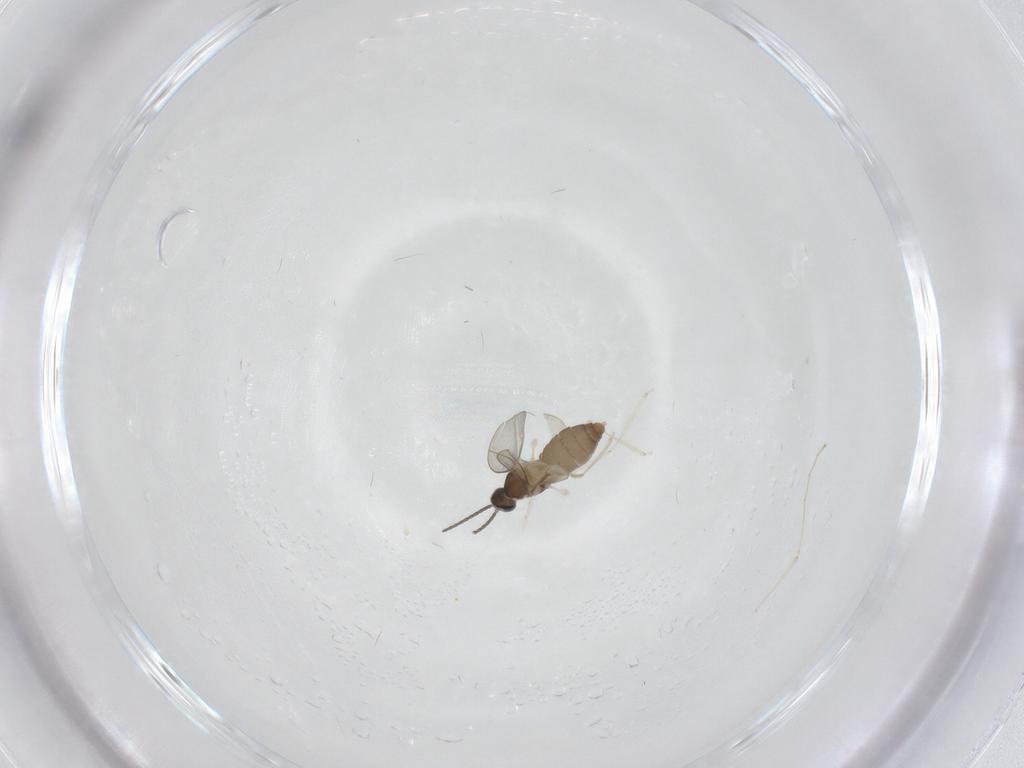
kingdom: Animalia
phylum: Arthropoda
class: Insecta
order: Diptera
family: Cecidomyiidae
